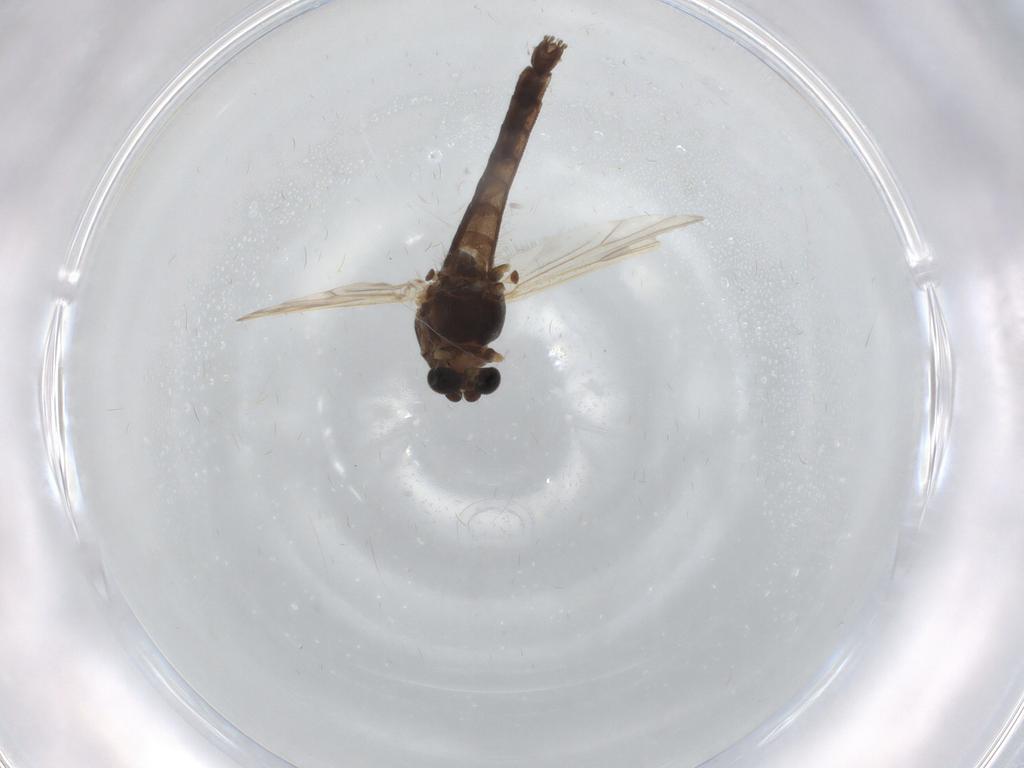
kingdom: Animalia
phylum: Arthropoda
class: Insecta
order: Diptera
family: Chironomidae
